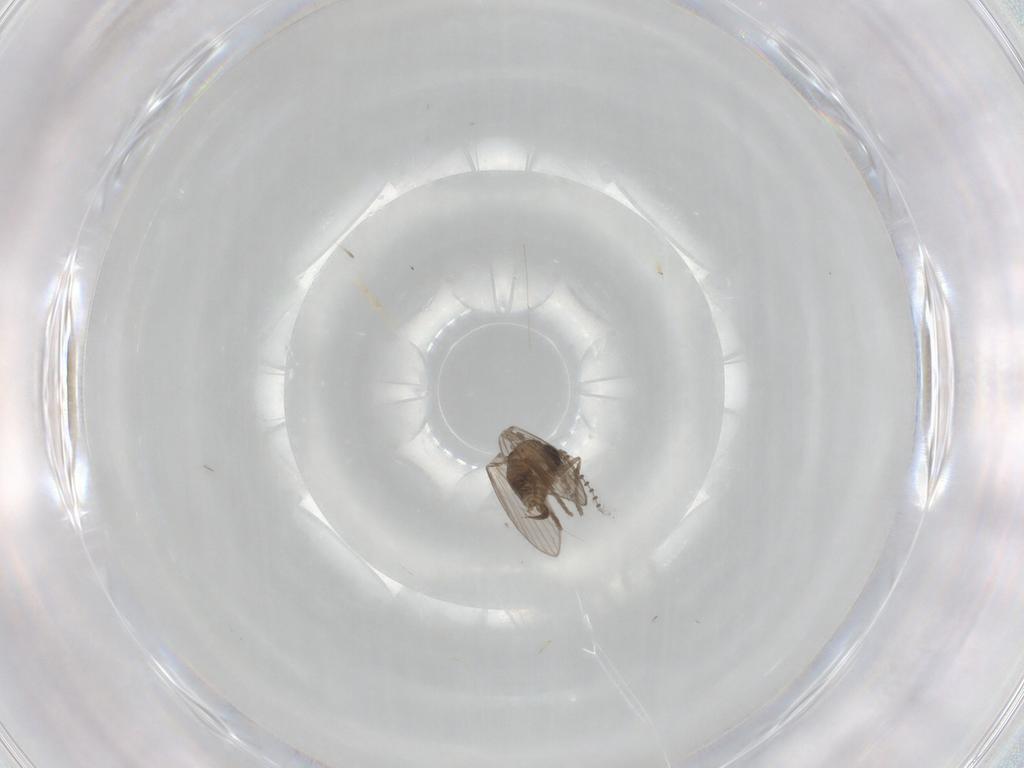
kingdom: Animalia
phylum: Arthropoda
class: Insecta
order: Diptera
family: Psychodidae
